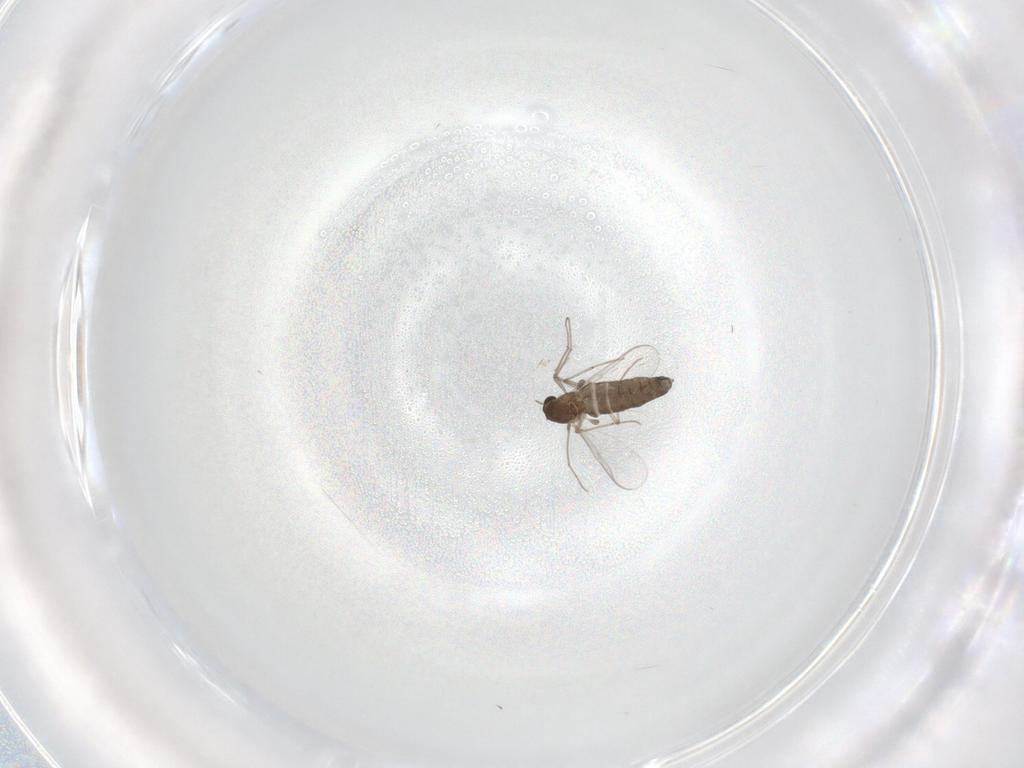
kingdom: Animalia
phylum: Arthropoda
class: Insecta
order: Diptera
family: Chironomidae
